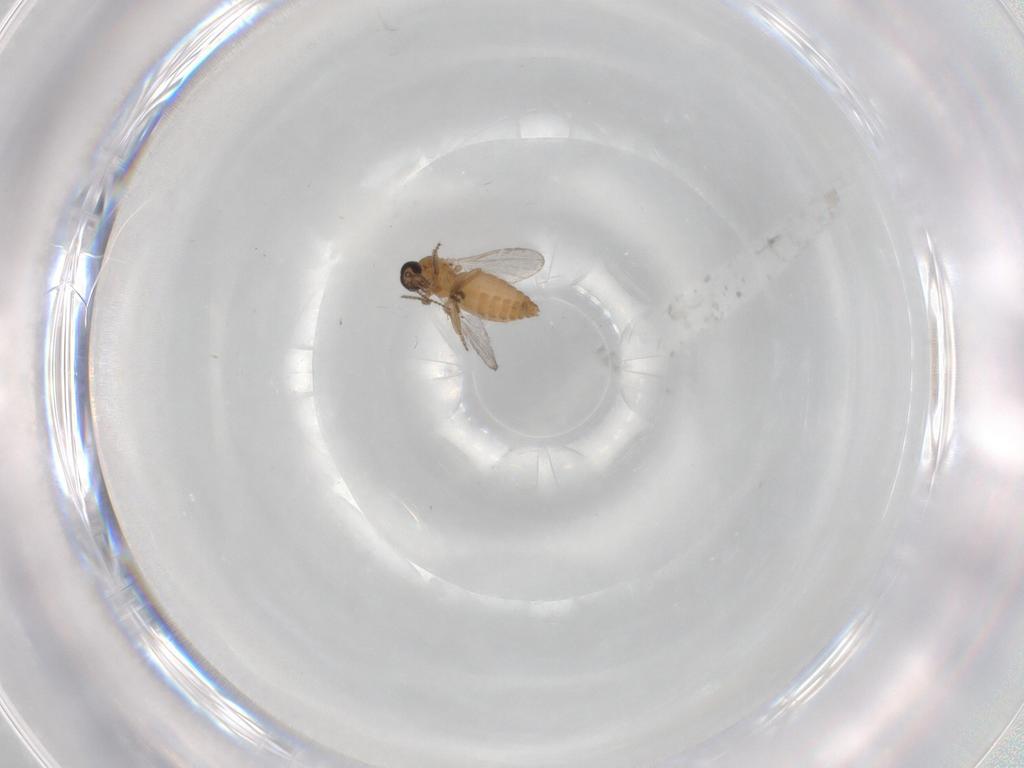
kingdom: Animalia
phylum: Arthropoda
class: Insecta
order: Diptera
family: Ceratopogonidae
